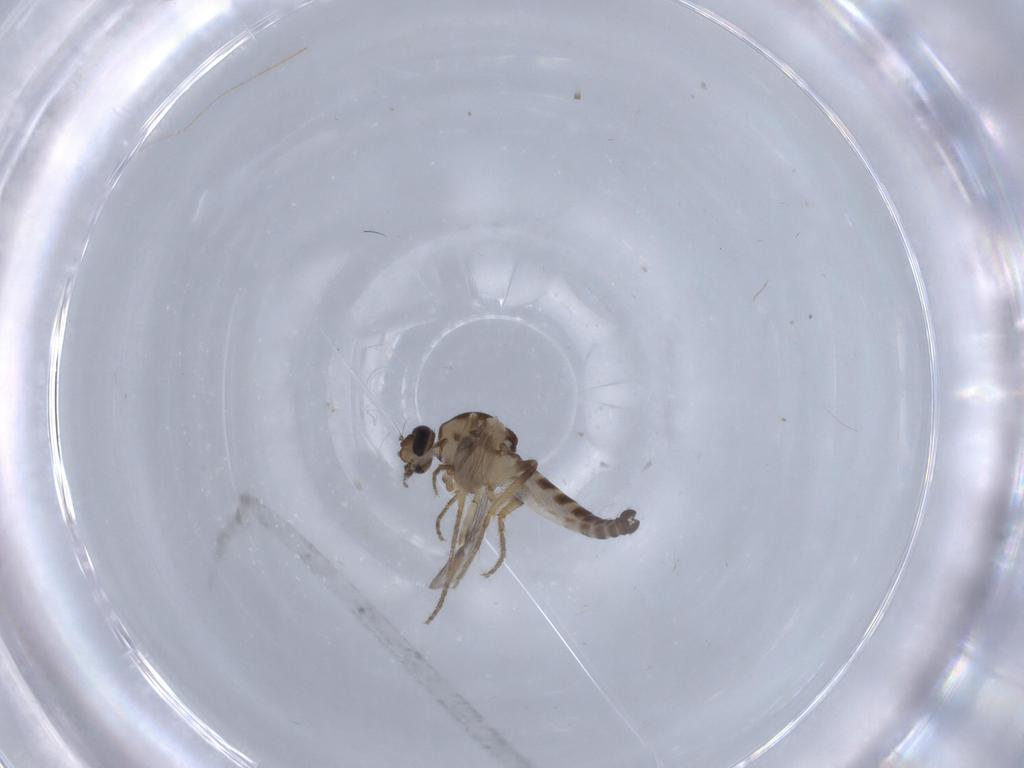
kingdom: Animalia
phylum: Arthropoda
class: Insecta
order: Diptera
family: Ceratopogonidae
